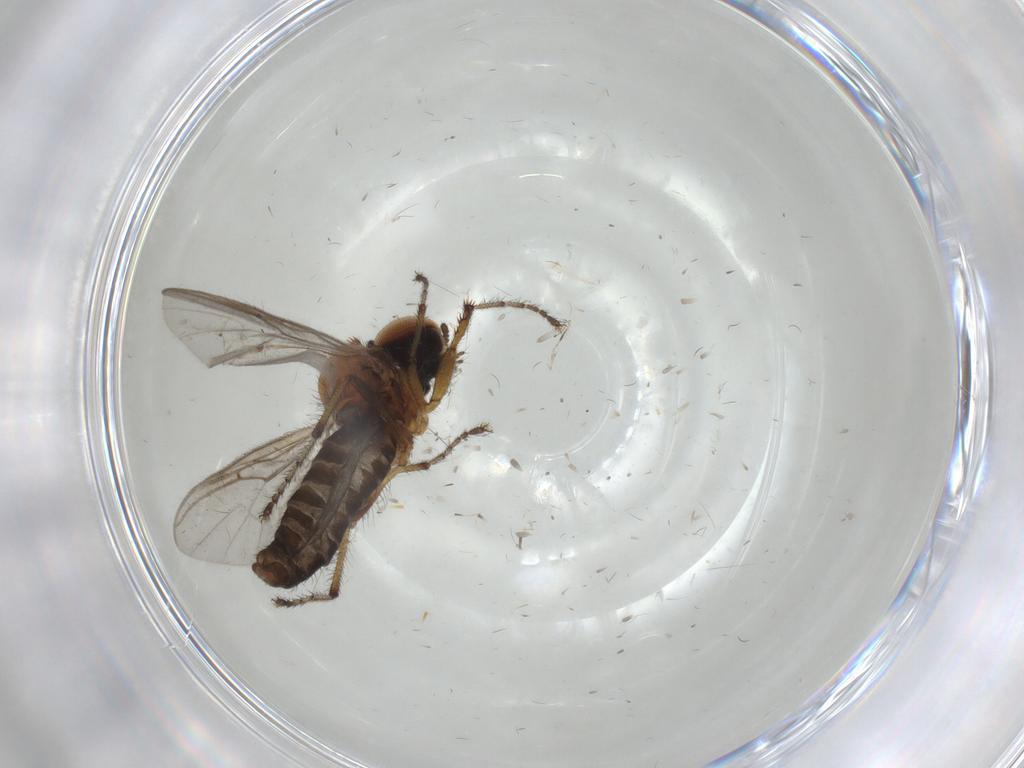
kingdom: Animalia
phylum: Arthropoda
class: Insecta
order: Diptera
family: Bibionidae
